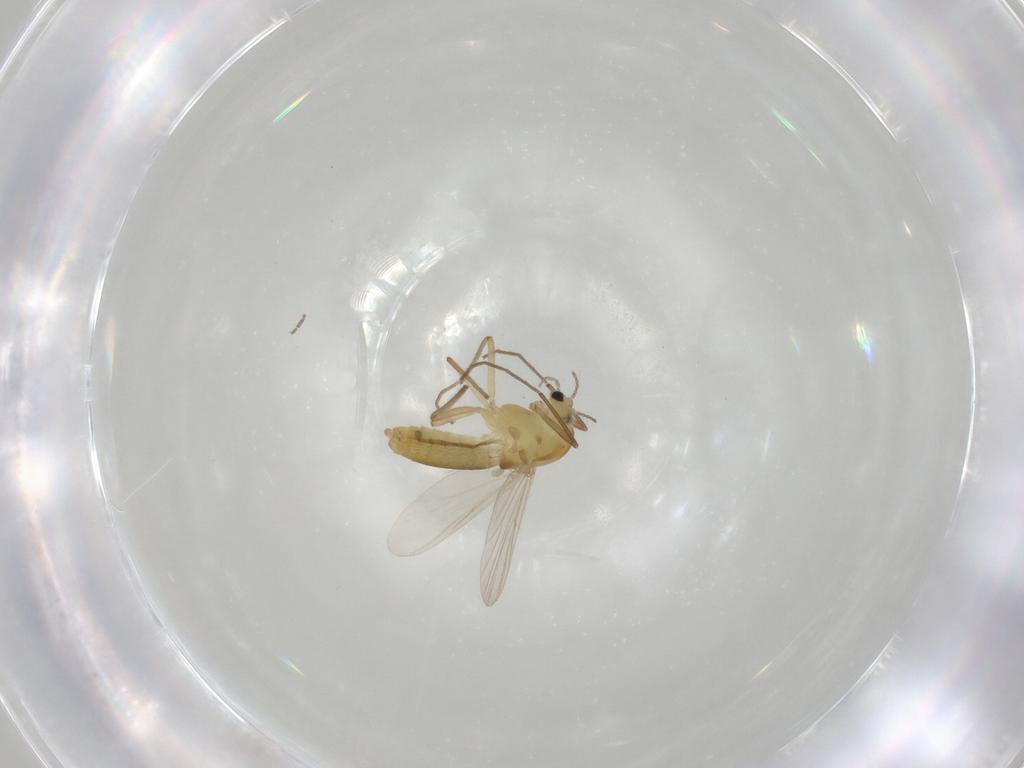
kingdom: Animalia
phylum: Arthropoda
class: Insecta
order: Diptera
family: Chironomidae
